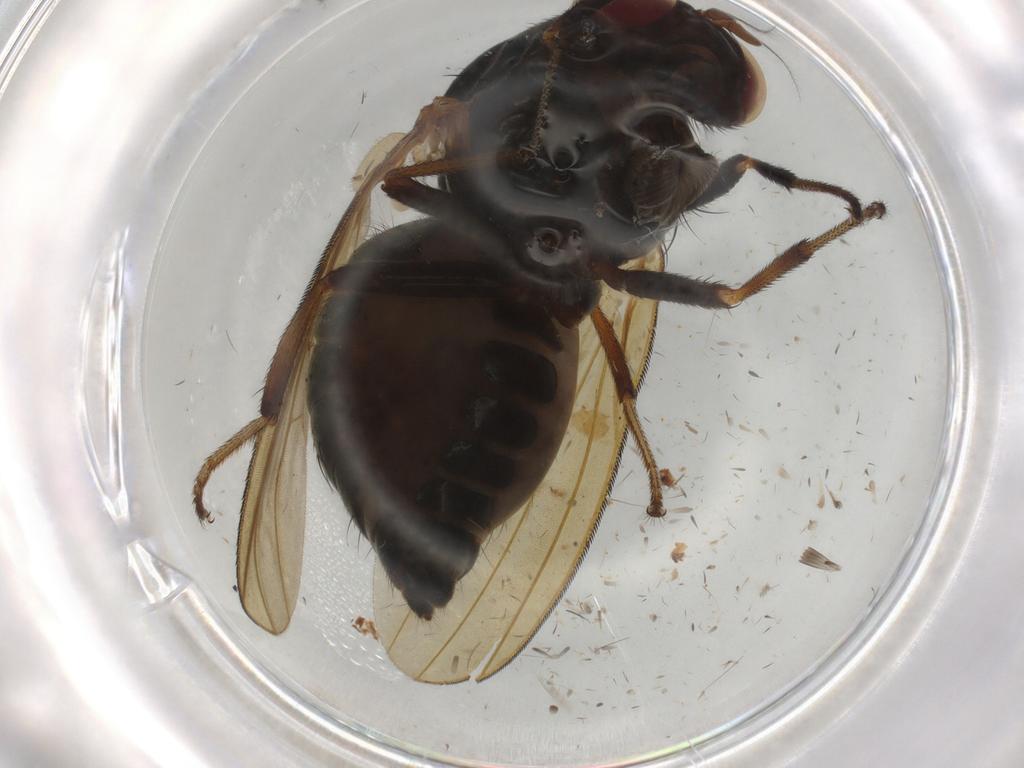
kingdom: Animalia
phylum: Arthropoda
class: Insecta
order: Diptera
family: Lauxaniidae
